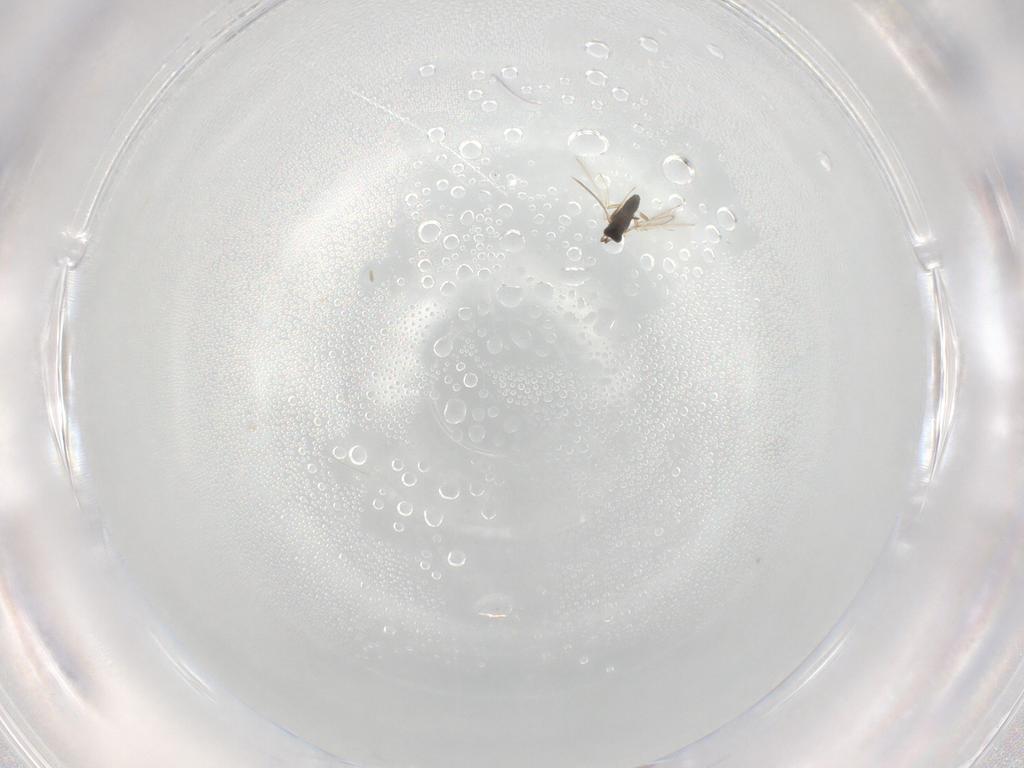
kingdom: Animalia
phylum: Arthropoda
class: Insecta
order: Hymenoptera
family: Mymaridae
